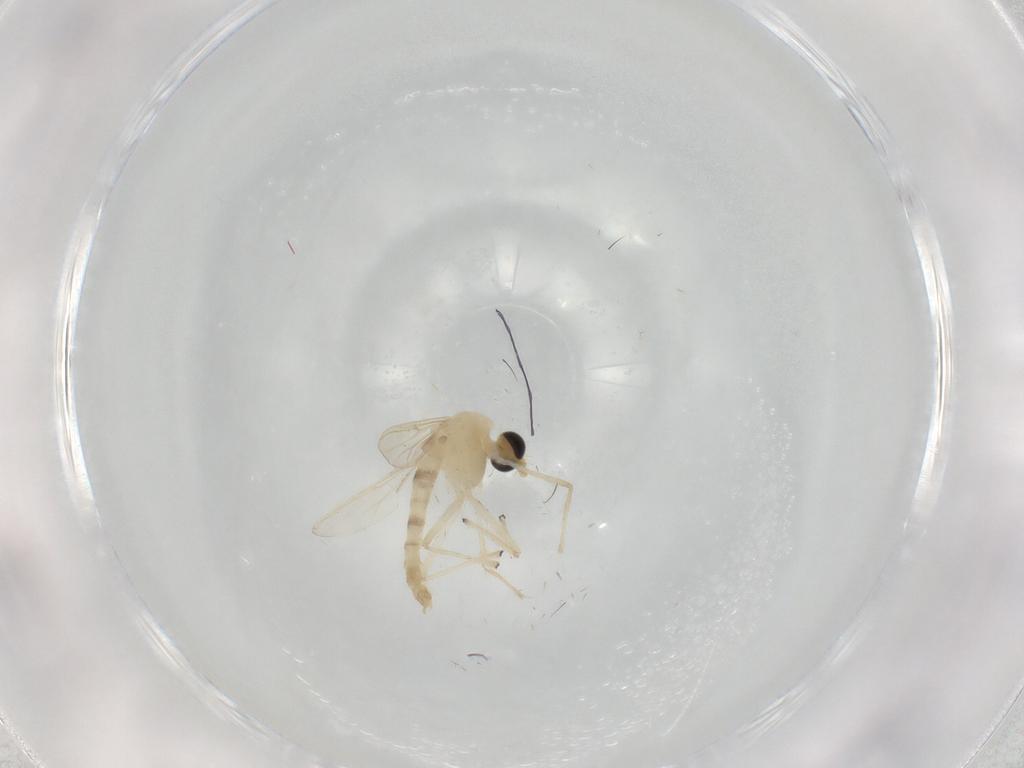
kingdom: Animalia
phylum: Arthropoda
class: Insecta
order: Diptera
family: Chironomidae
